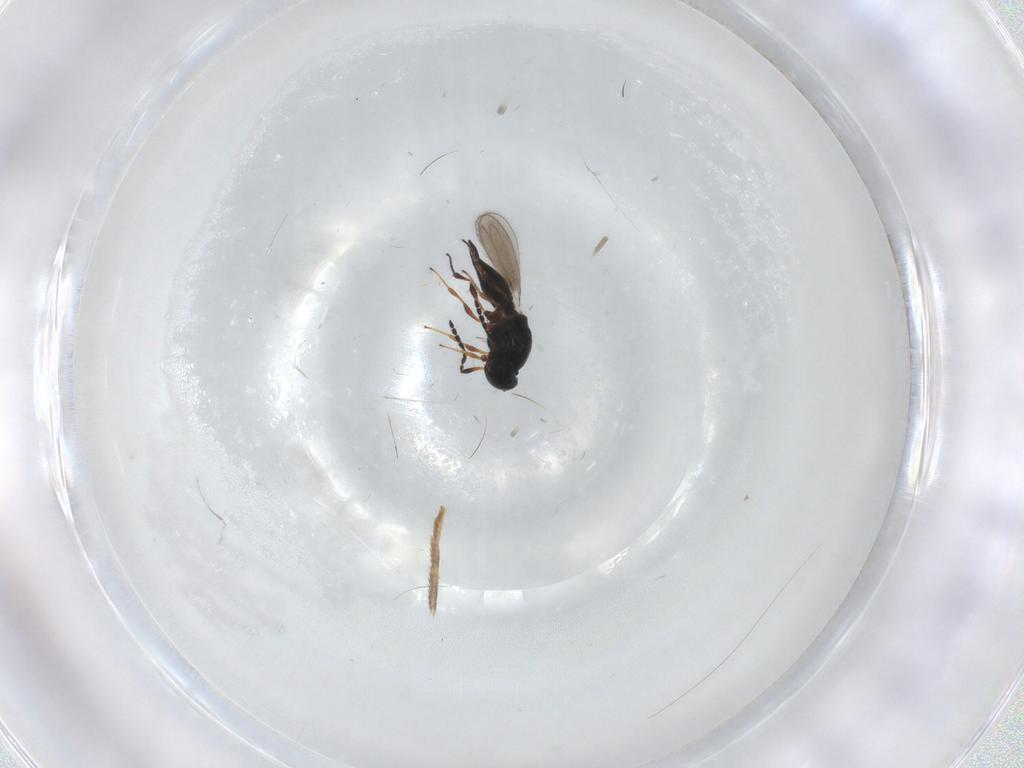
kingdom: Animalia
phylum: Arthropoda
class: Insecta
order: Hymenoptera
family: Platygastridae
